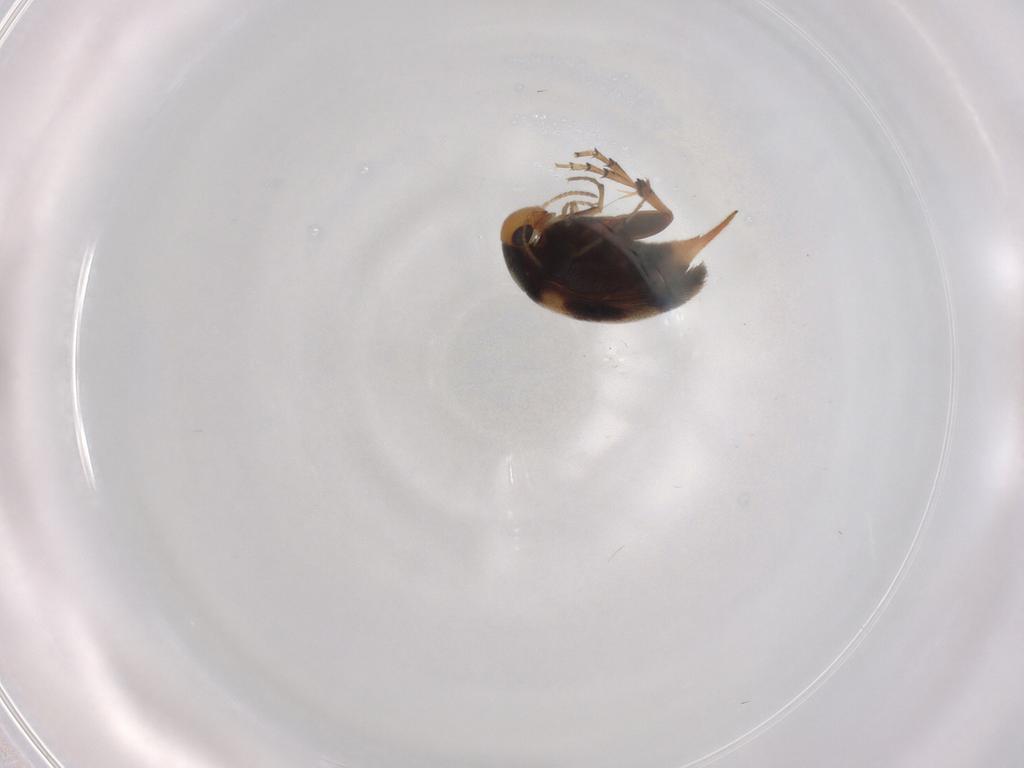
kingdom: Animalia
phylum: Arthropoda
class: Insecta
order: Coleoptera
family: Mordellidae
